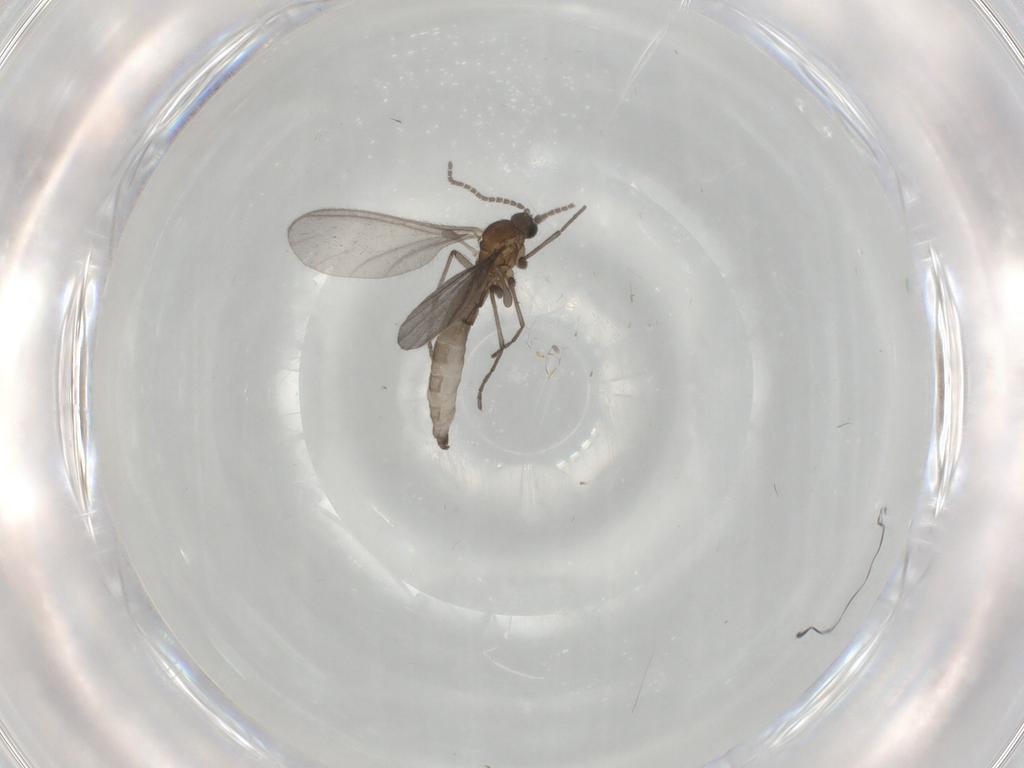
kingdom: Animalia
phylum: Arthropoda
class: Insecta
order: Diptera
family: Sciaridae
